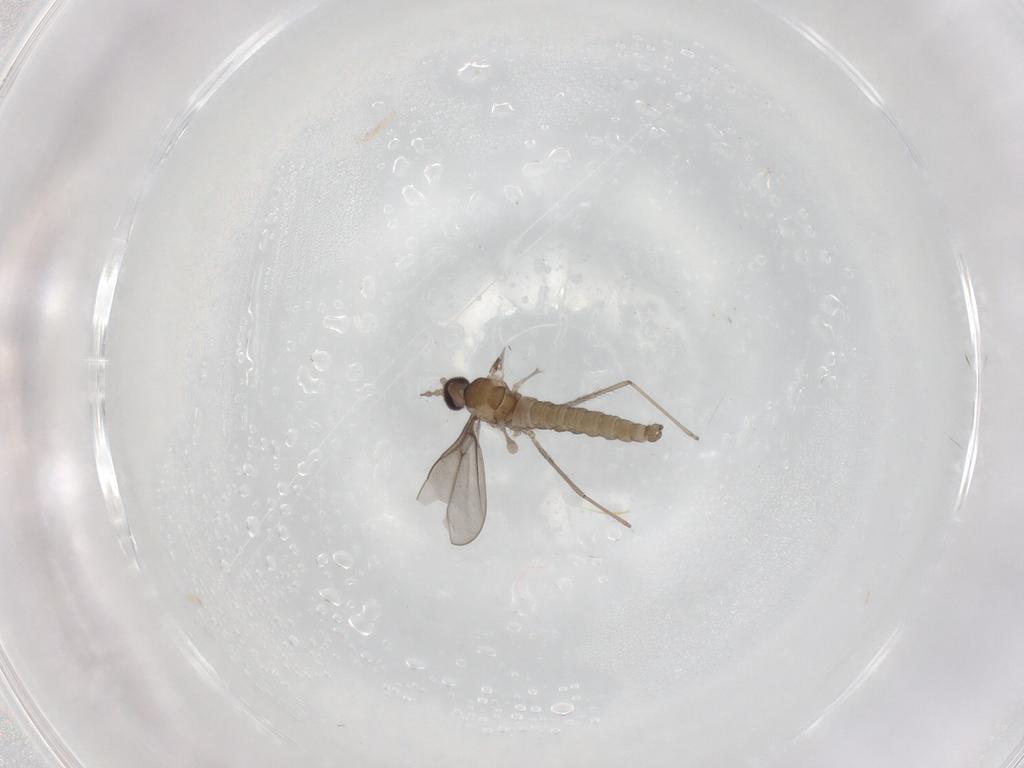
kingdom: Animalia
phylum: Arthropoda
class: Insecta
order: Diptera
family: Cecidomyiidae
